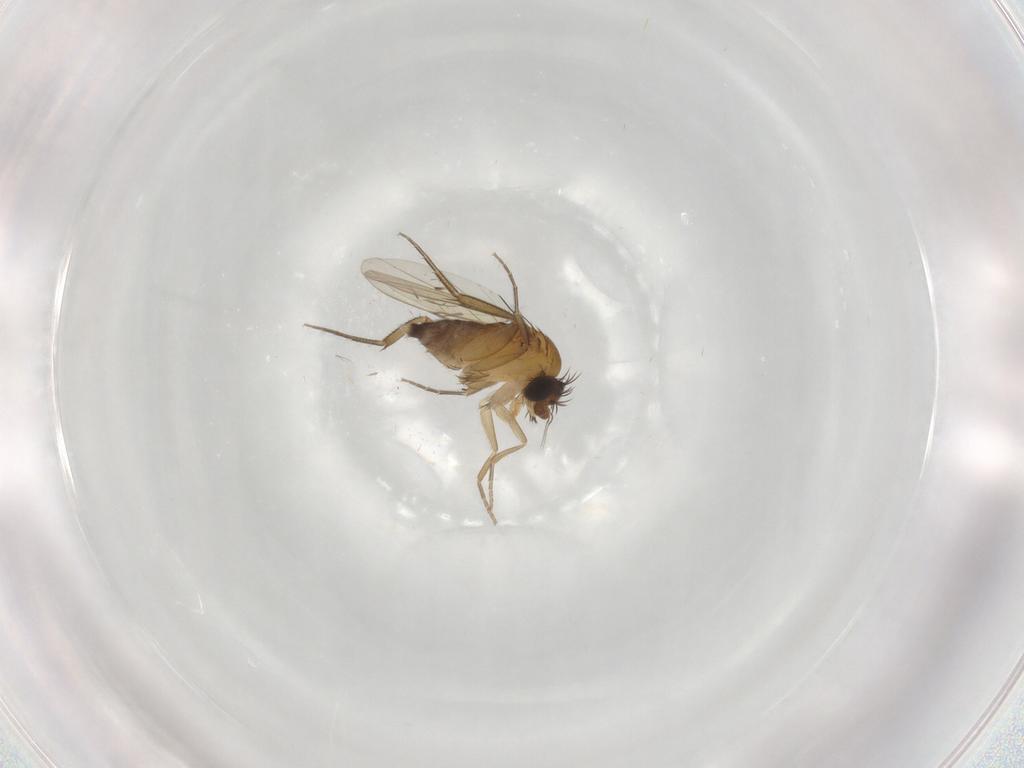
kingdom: Animalia
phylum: Arthropoda
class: Insecta
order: Diptera
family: Phoridae
